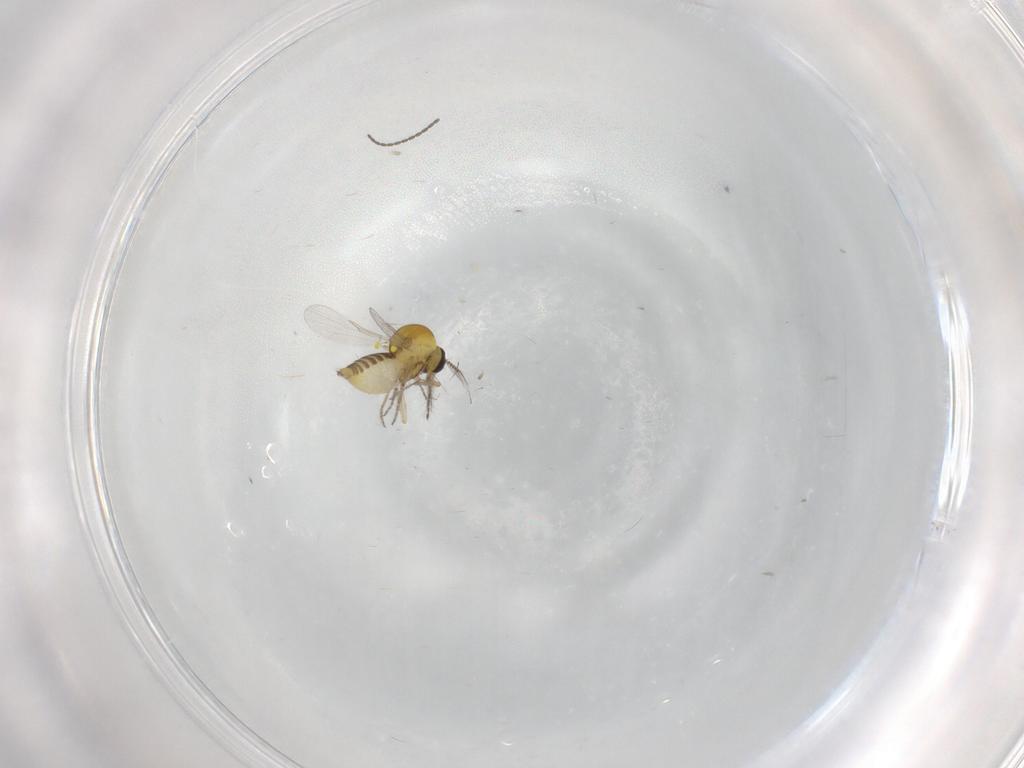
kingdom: Animalia
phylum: Arthropoda
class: Insecta
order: Diptera
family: Ceratopogonidae
